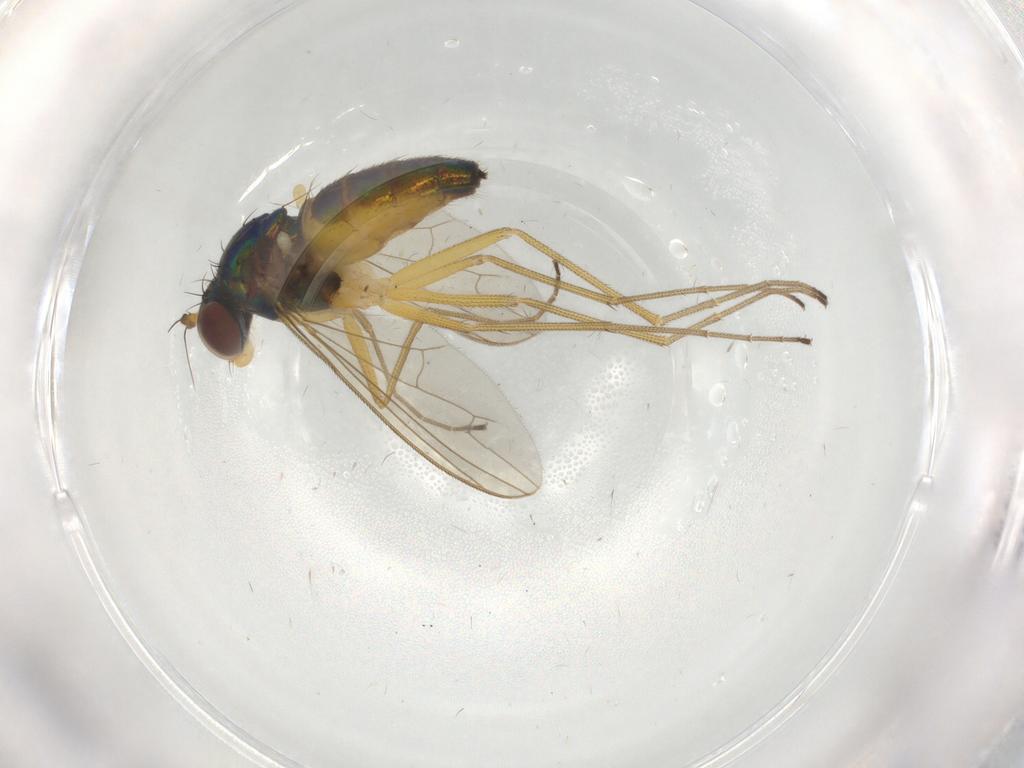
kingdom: Animalia
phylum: Arthropoda
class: Insecta
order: Diptera
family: Dolichopodidae
